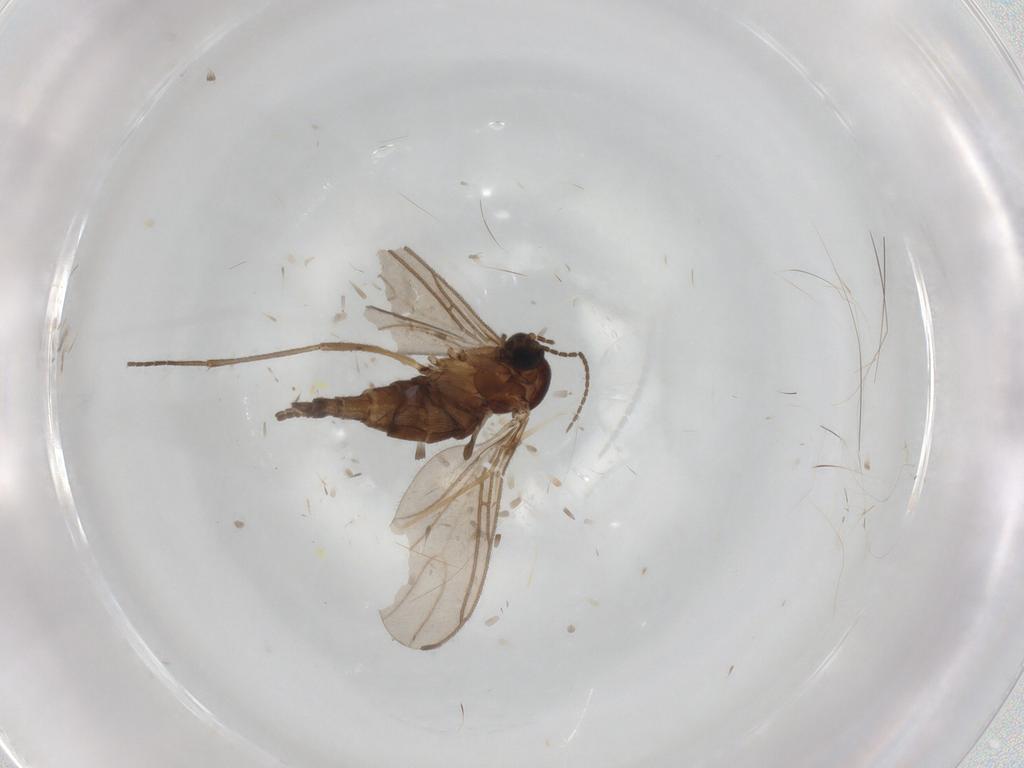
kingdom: Animalia
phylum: Arthropoda
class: Insecta
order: Diptera
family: Sciaridae
